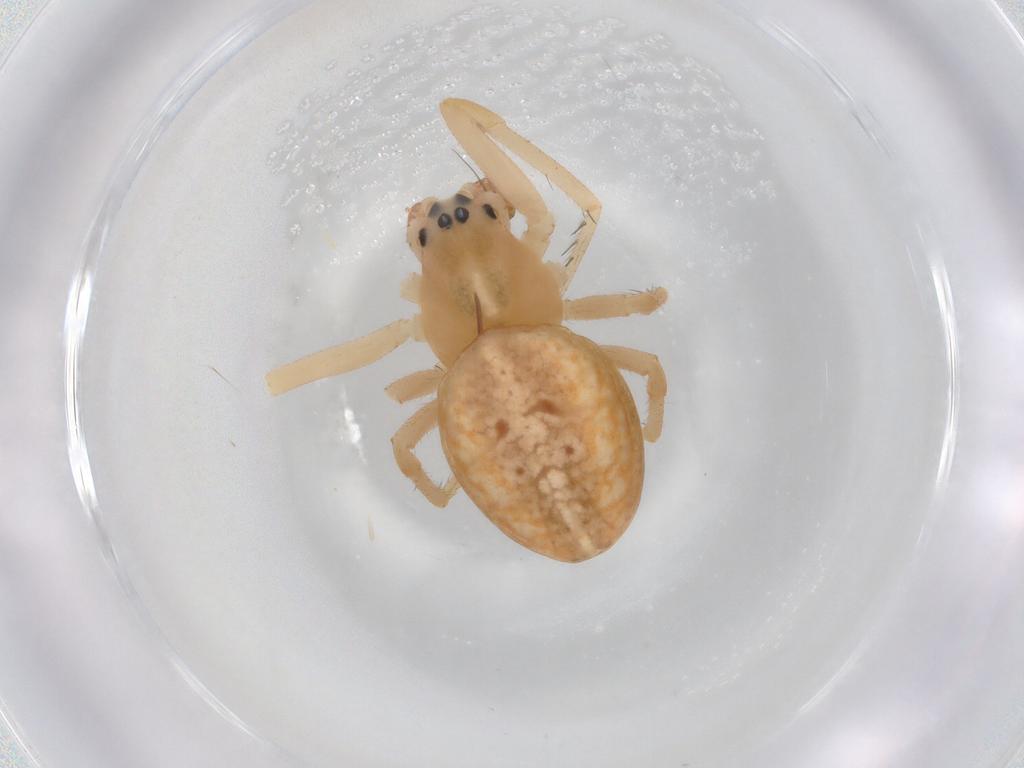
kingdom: Animalia
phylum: Arthropoda
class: Arachnida
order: Araneae
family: Araneidae
